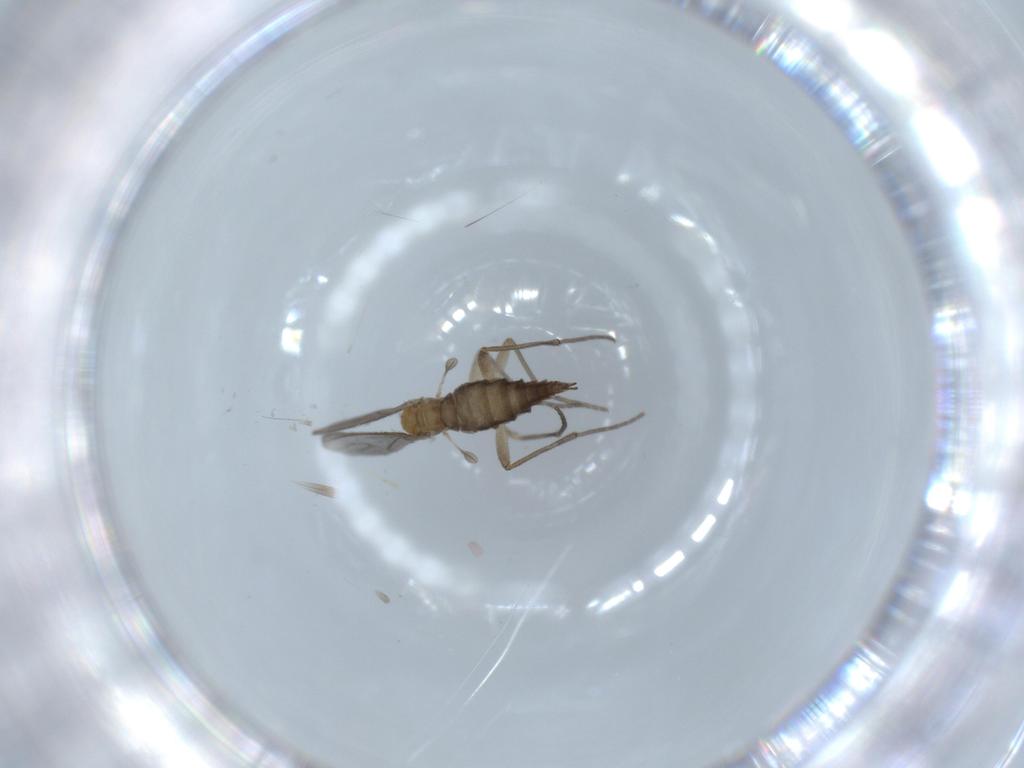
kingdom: Animalia
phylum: Arthropoda
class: Insecta
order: Diptera
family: Sciaridae
